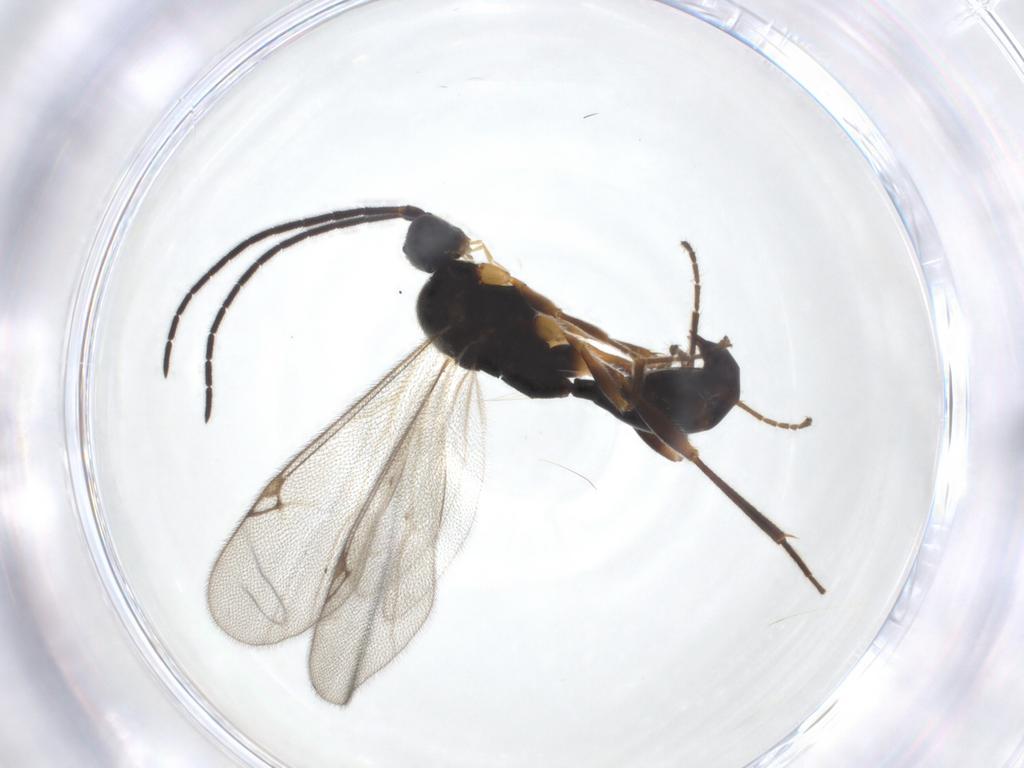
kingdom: Animalia
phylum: Arthropoda
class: Insecta
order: Hymenoptera
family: Proctotrupidae
